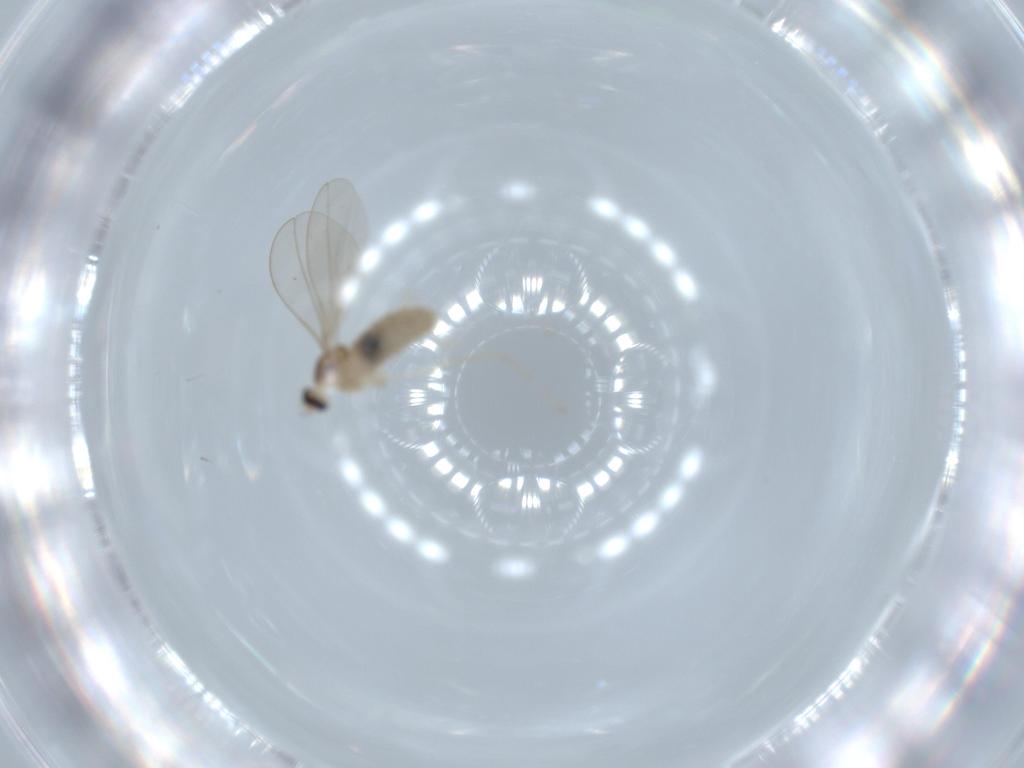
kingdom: Animalia
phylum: Arthropoda
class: Insecta
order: Diptera
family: Cecidomyiidae
